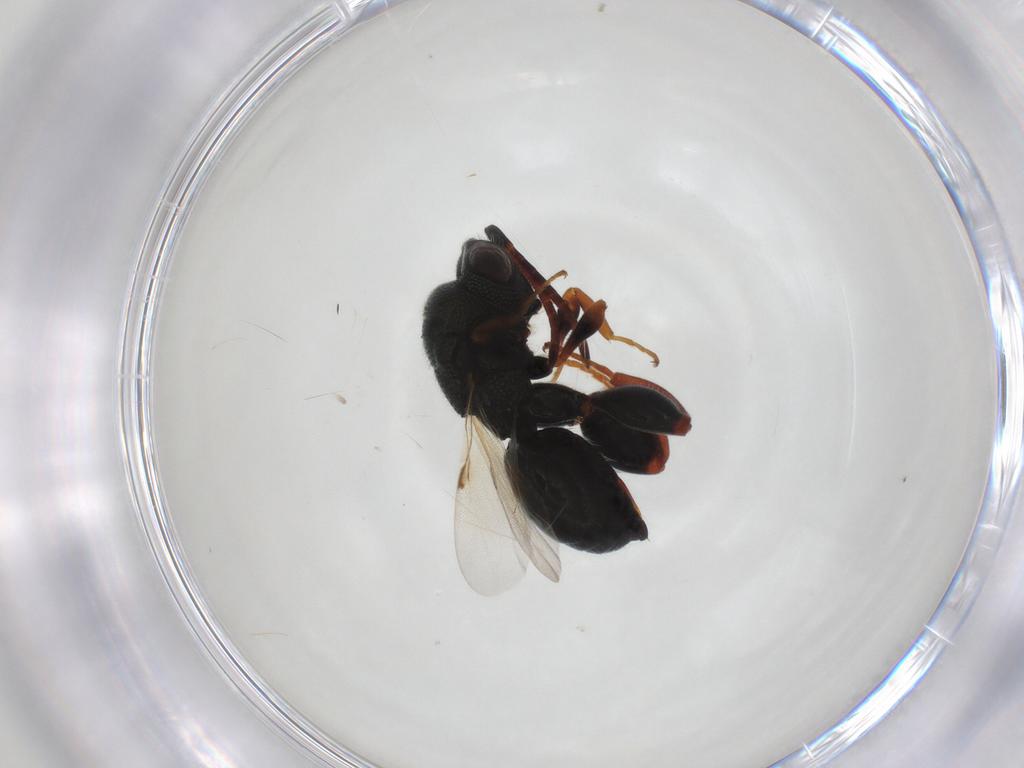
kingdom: Animalia
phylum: Arthropoda
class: Insecta
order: Hymenoptera
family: Chalcididae
